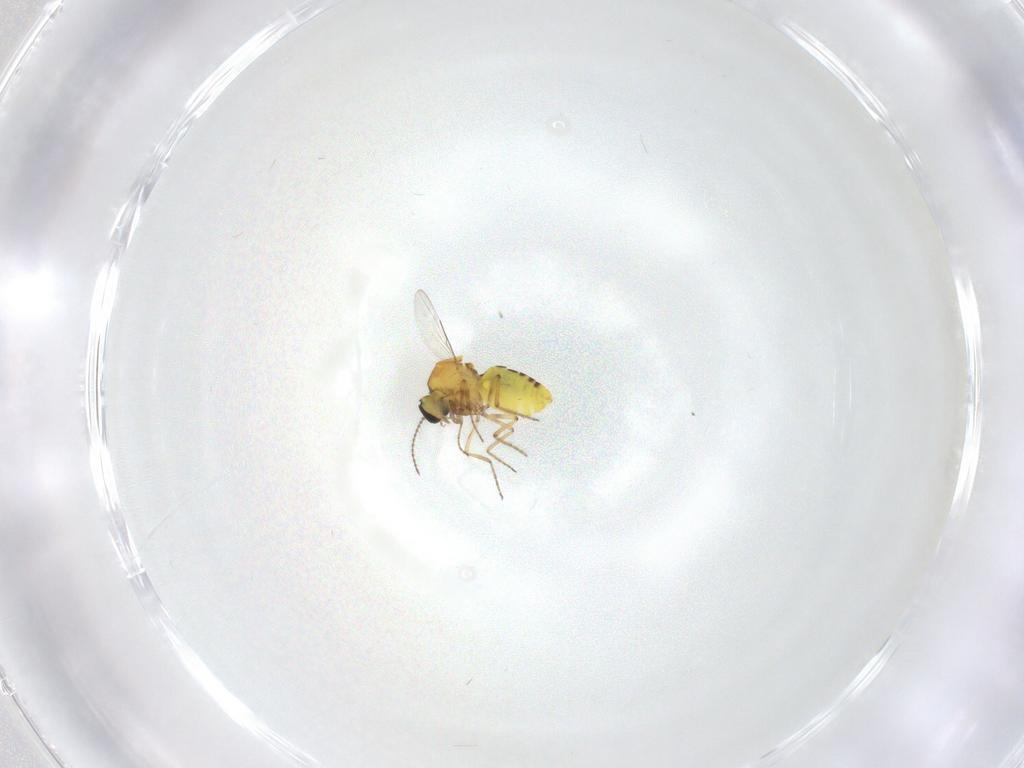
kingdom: Animalia
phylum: Arthropoda
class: Insecta
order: Diptera
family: Ceratopogonidae
